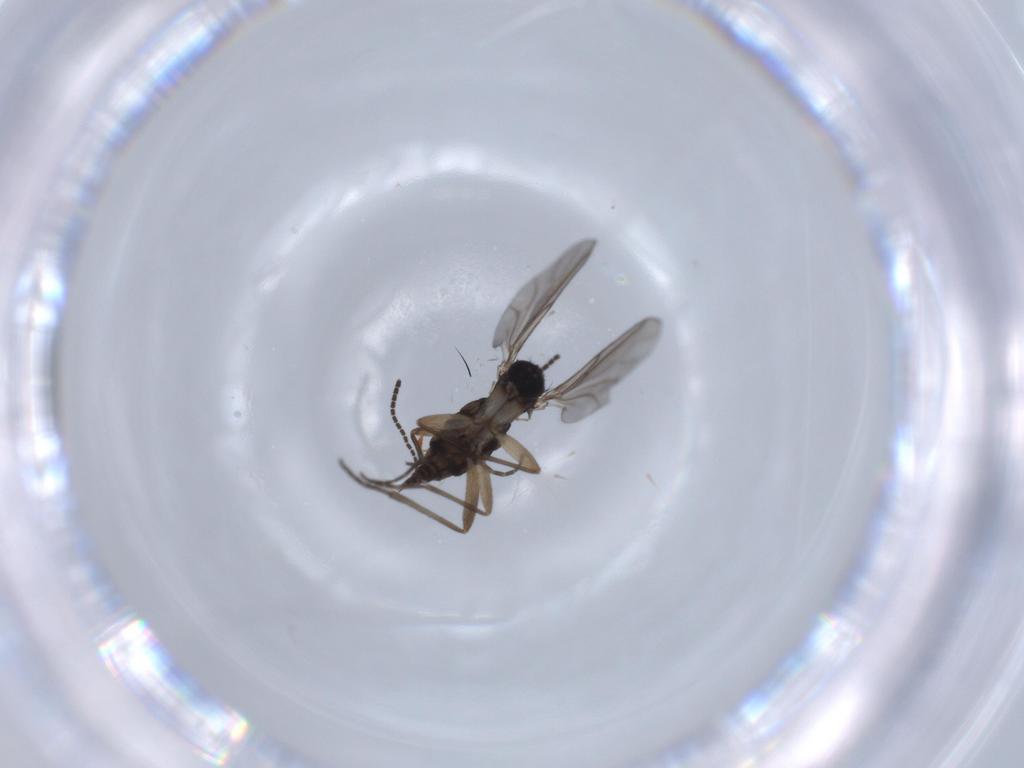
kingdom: Animalia
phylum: Arthropoda
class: Insecta
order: Diptera
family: Sciaridae
